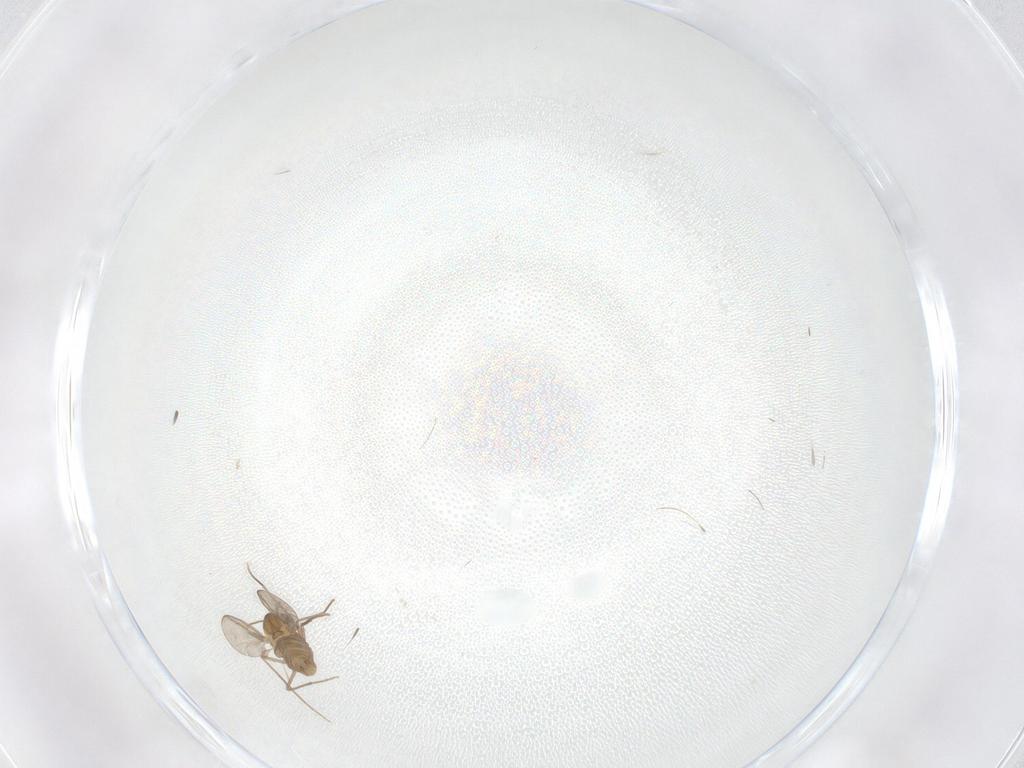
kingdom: Animalia
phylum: Arthropoda
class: Insecta
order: Diptera
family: Chironomidae
